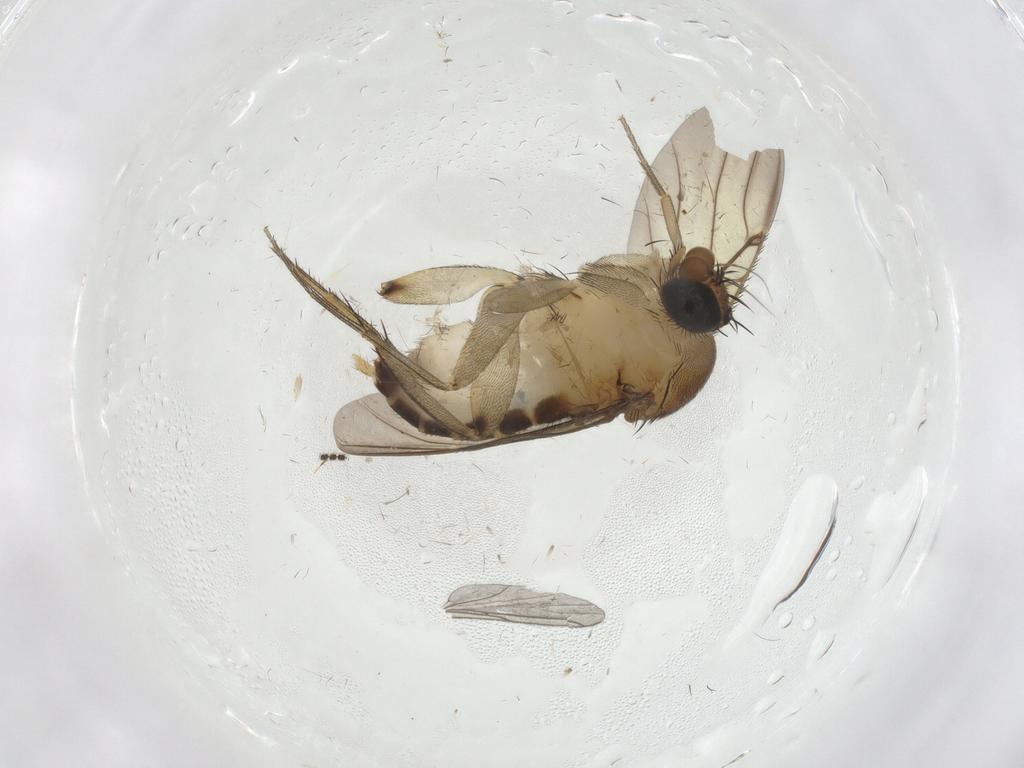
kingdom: Animalia
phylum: Arthropoda
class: Insecta
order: Diptera
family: Phoridae
